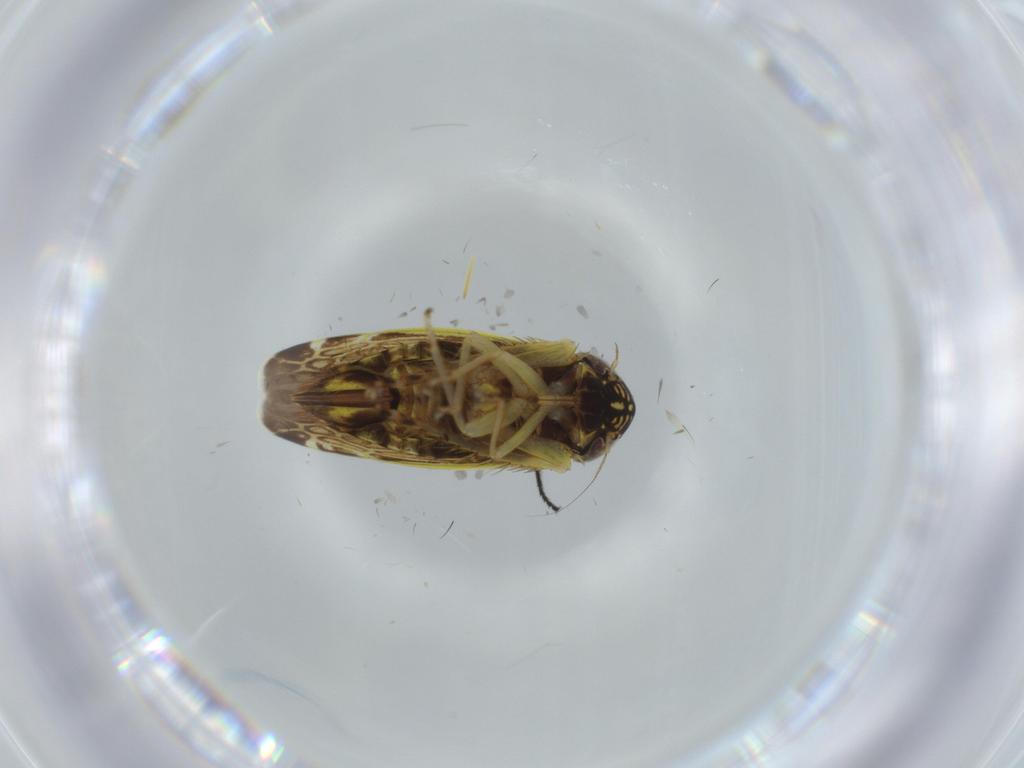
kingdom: Animalia
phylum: Arthropoda
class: Insecta
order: Hemiptera
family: Cicadellidae
